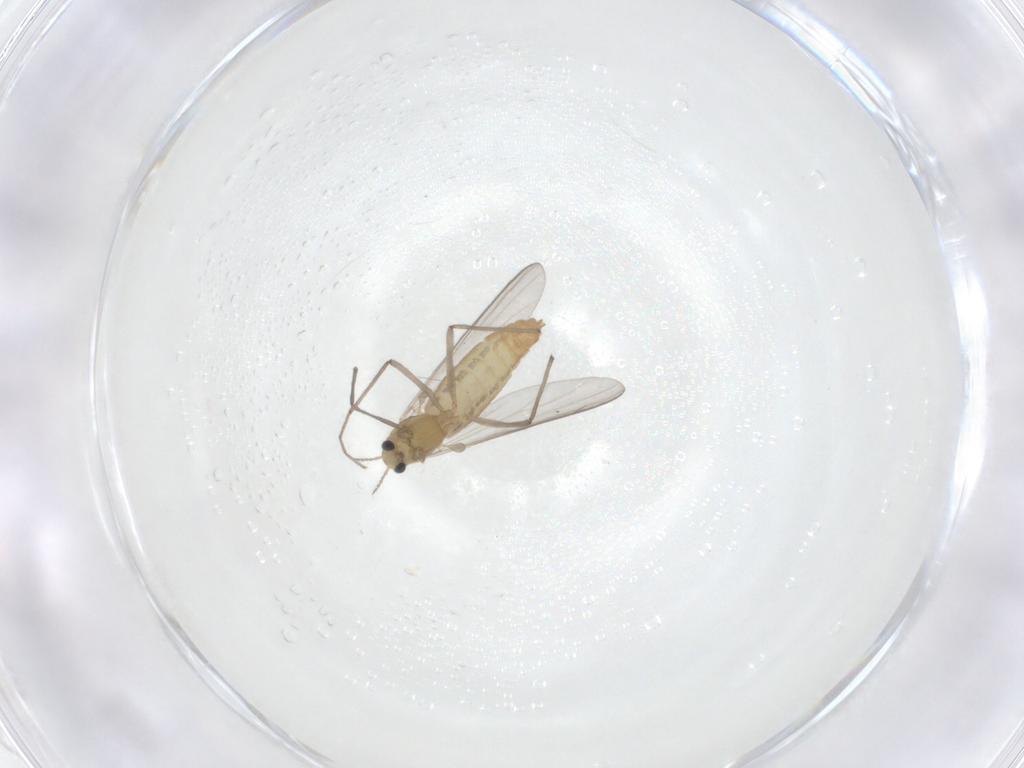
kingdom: Animalia
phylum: Arthropoda
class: Insecta
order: Diptera
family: Chironomidae
